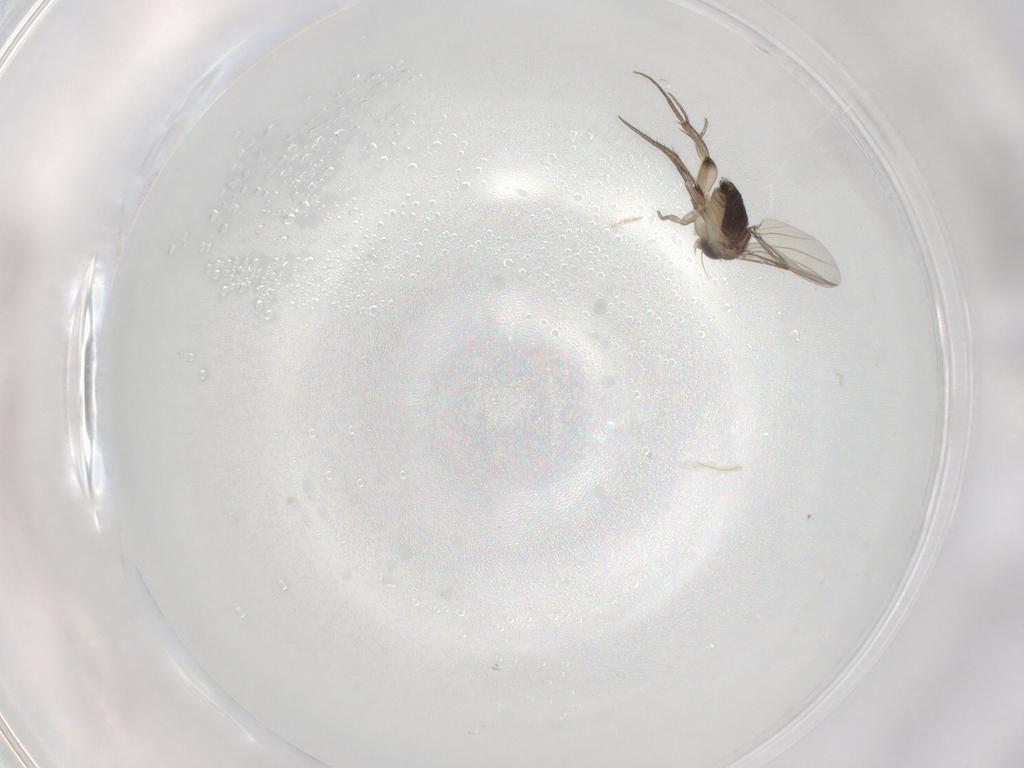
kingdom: Animalia
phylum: Arthropoda
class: Insecta
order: Diptera
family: Phoridae
